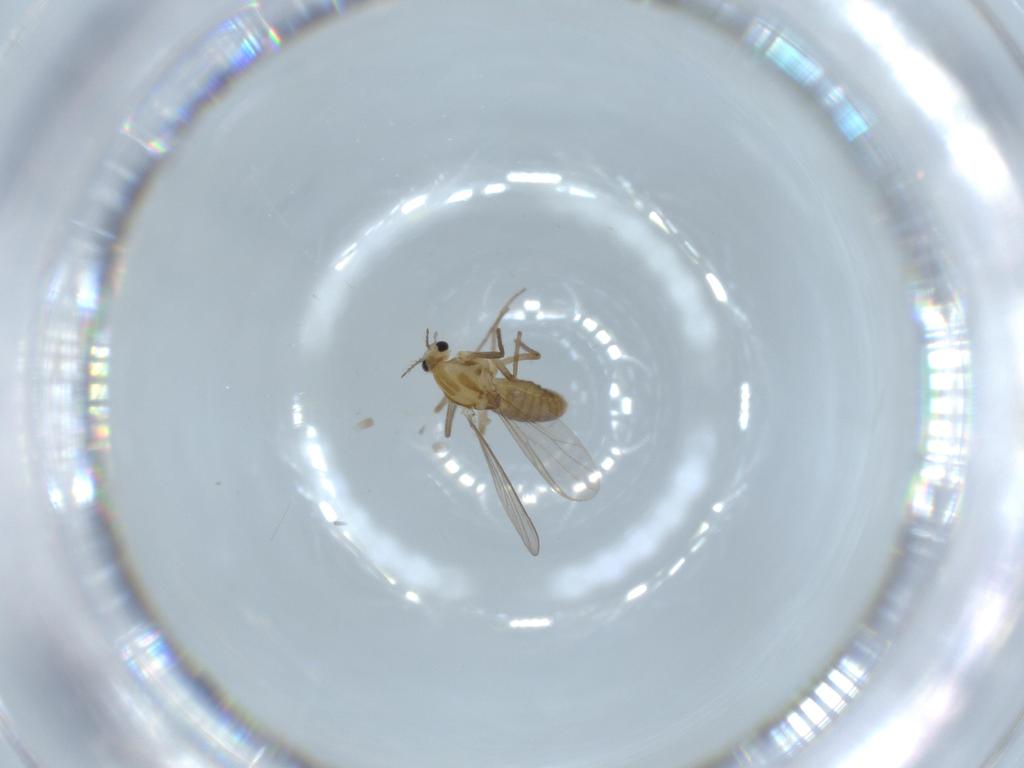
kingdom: Animalia
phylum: Arthropoda
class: Insecta
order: Diptera
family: Chironomidae
